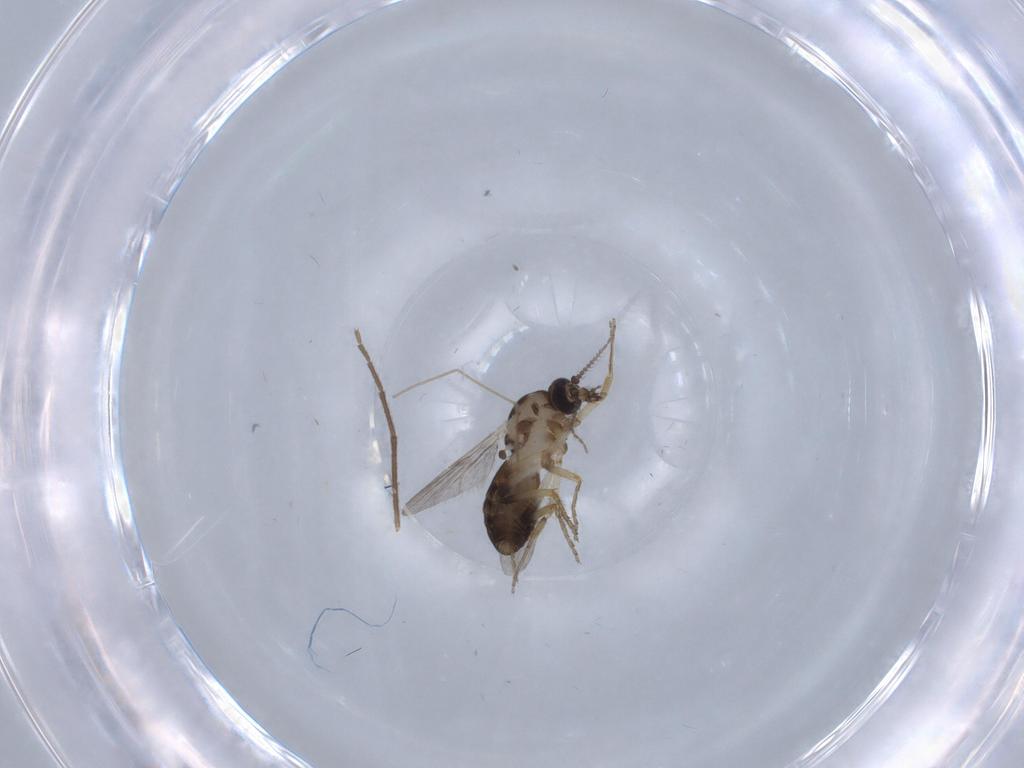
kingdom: Animalia
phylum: Arthropoda
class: Insecta
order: Diptera
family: Ceratopogonidae
